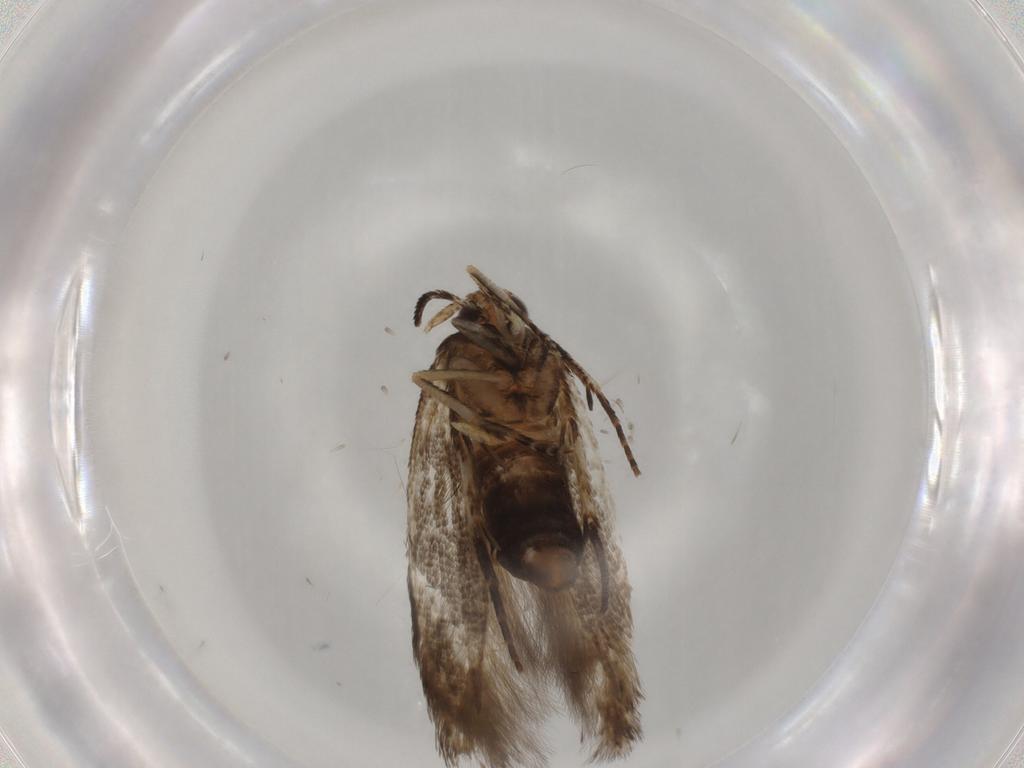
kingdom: Animalia
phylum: Arthropoda
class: Insecta
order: Lepidoptera
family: Cosmopterigidae
